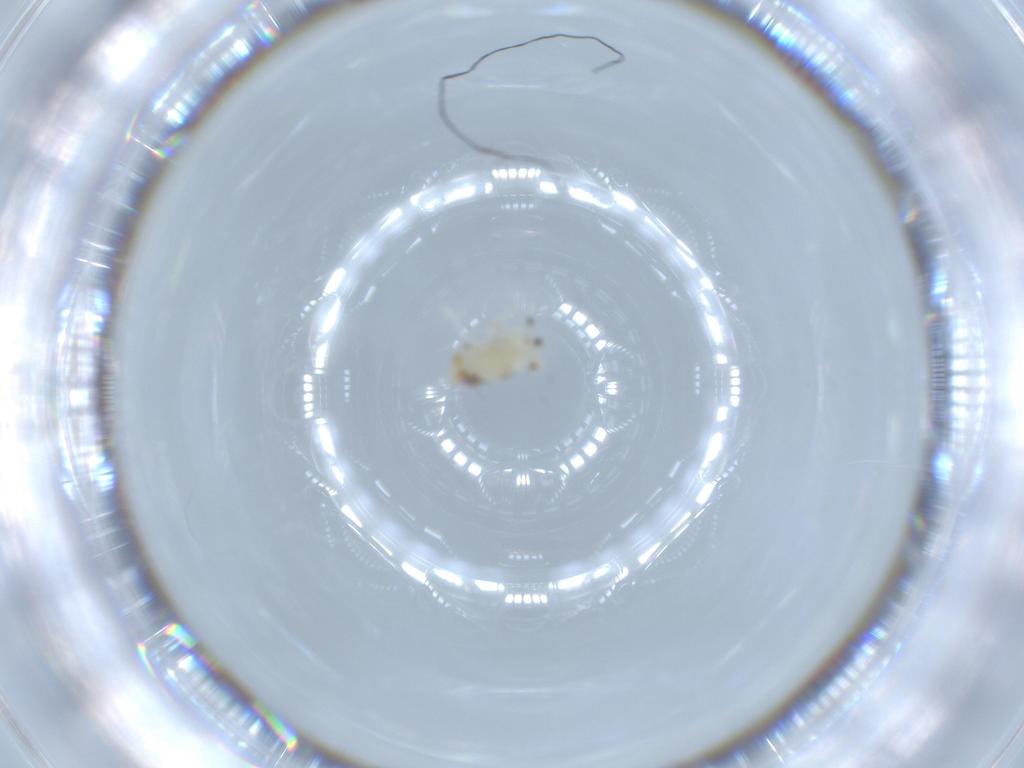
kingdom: Animalia
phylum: Arthropoda
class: Insecta
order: Hemiptera
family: Nogodinidae
